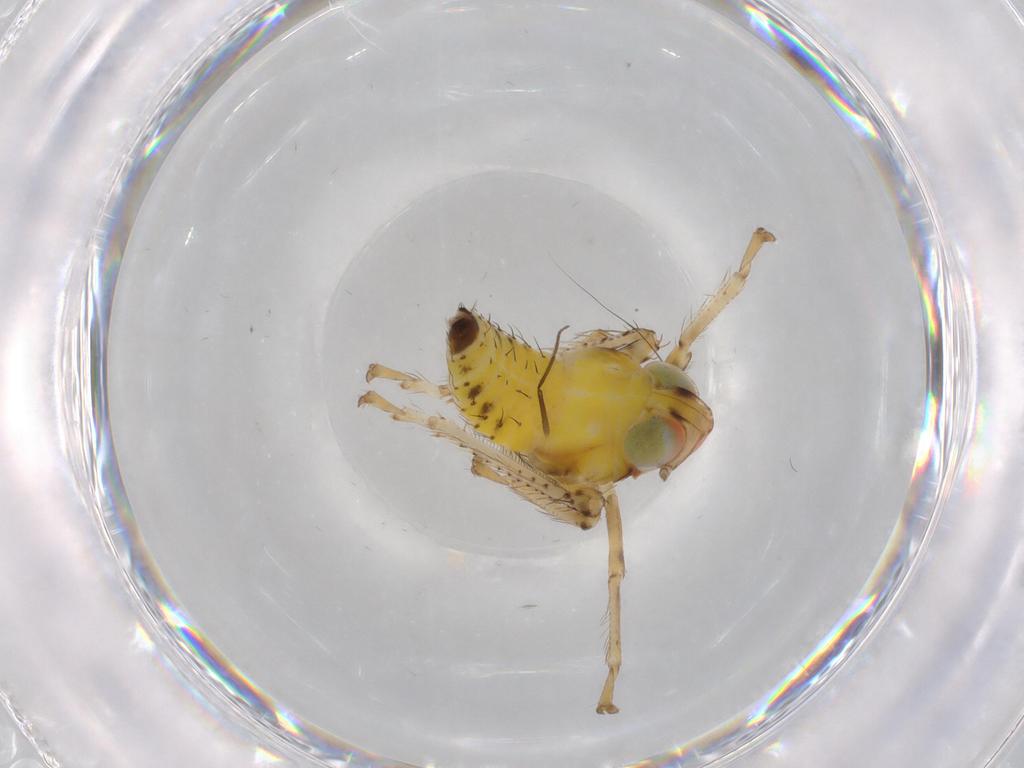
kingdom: Animalia
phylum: Arthropoda
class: Insecta
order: Hemiptera
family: Cicadellidae
